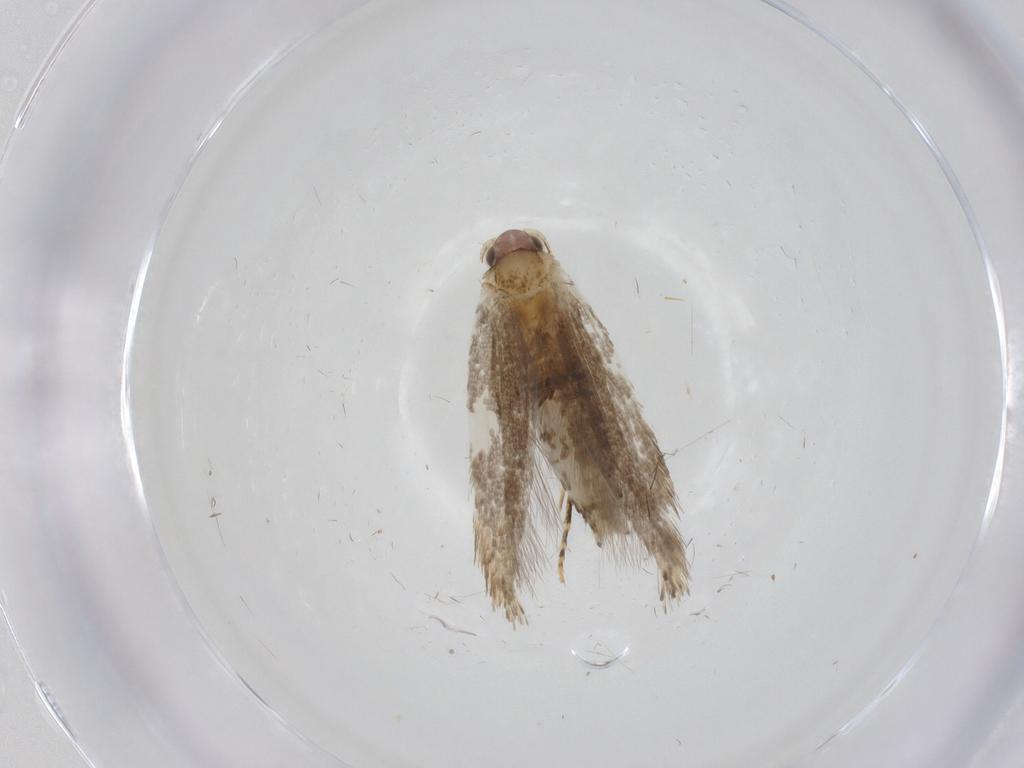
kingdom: Animalia
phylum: Arthropoda
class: Insecta
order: Lepidoptera
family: Tineidae
